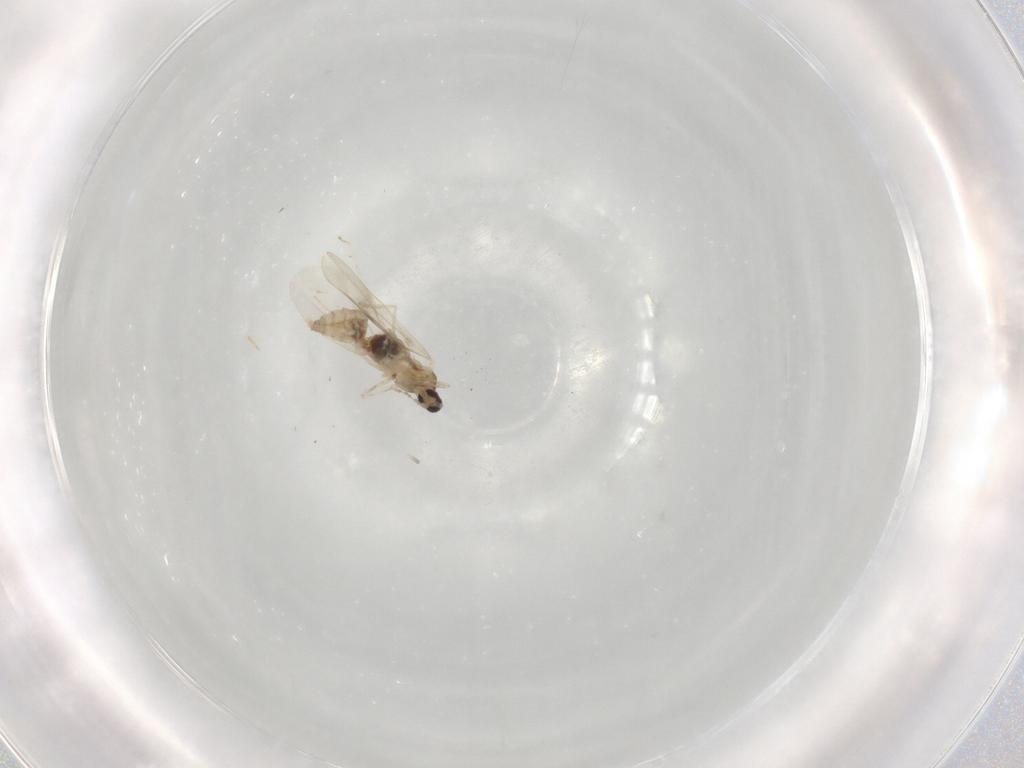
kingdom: Animalia
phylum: Arthropoda
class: Insecta
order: Diptera
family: Cecidomyiidae
